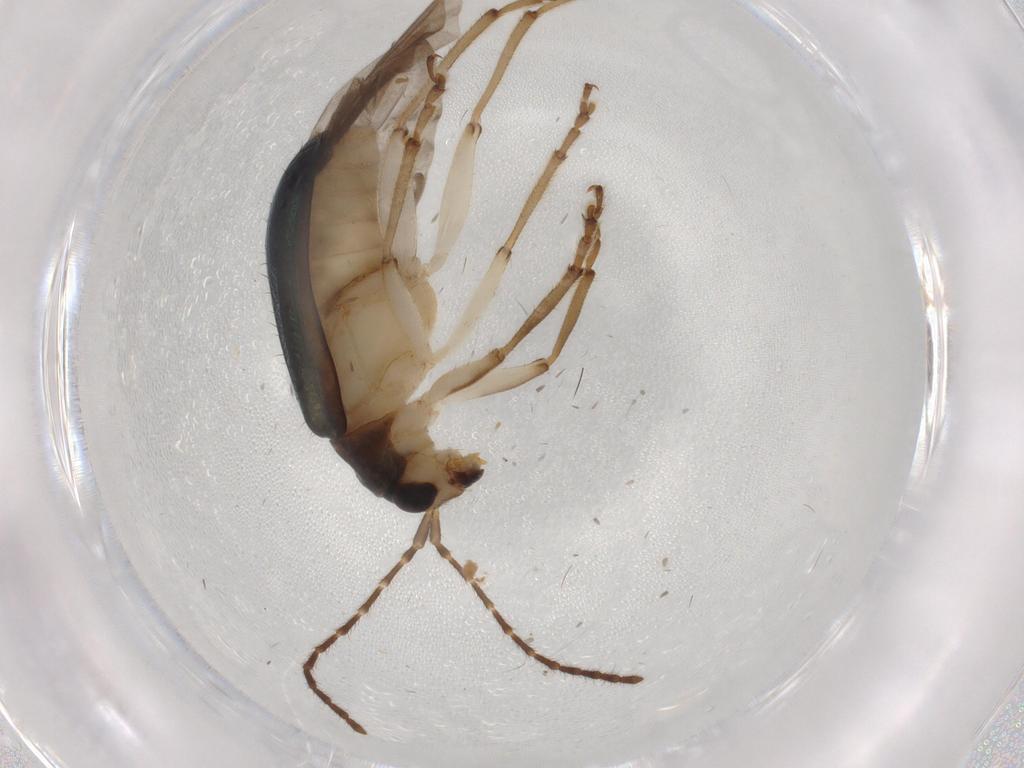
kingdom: Animalia
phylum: Arthropoda
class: Insecta
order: Coleoptera
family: Chrysomelidae
